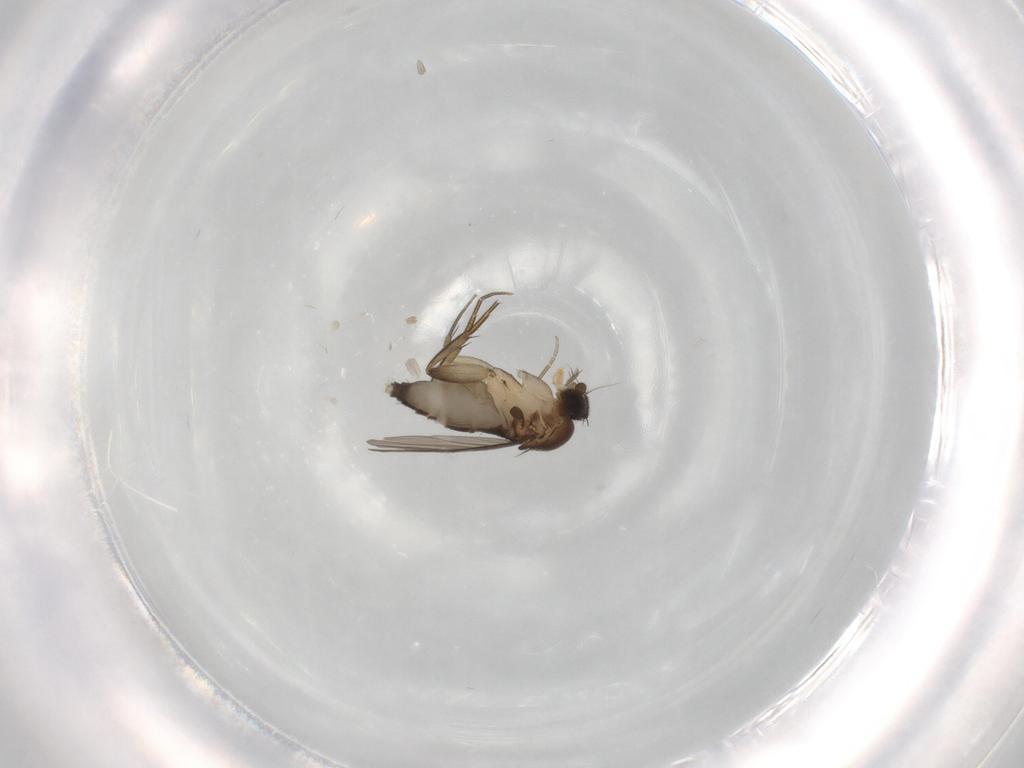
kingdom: Animalia
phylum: Arthropoda
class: Insecta
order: Diptera
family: Phoridae
